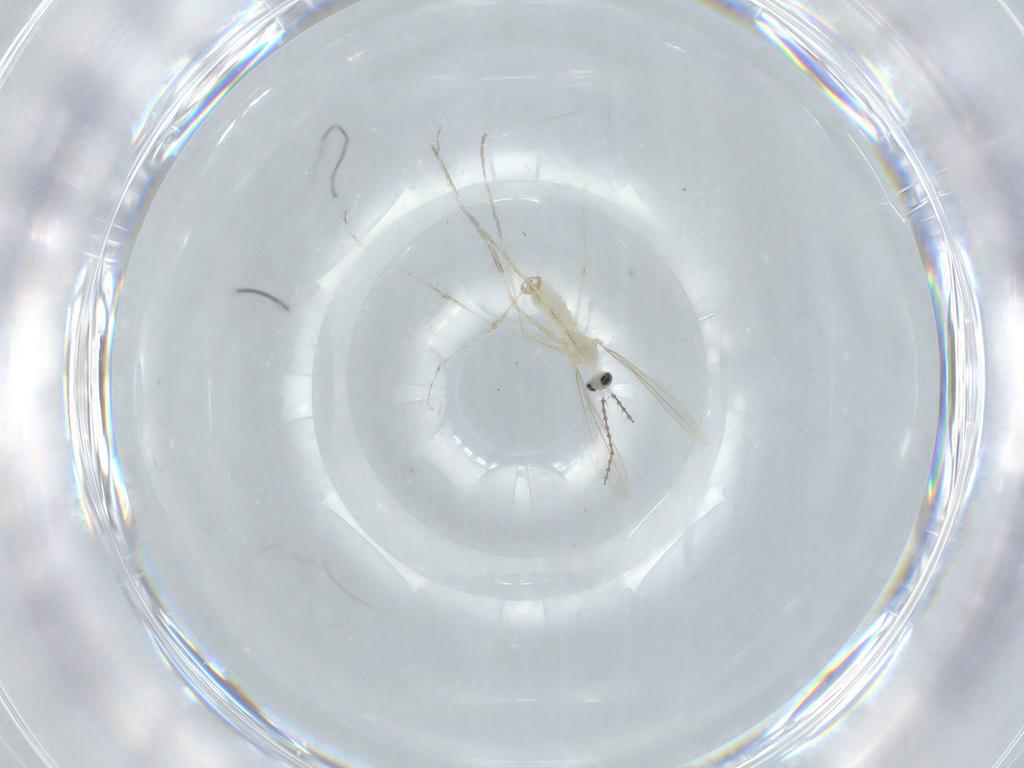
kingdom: Animalia
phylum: Arthropoda
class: Insecta
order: Diptera
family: Cecidomyiidae
